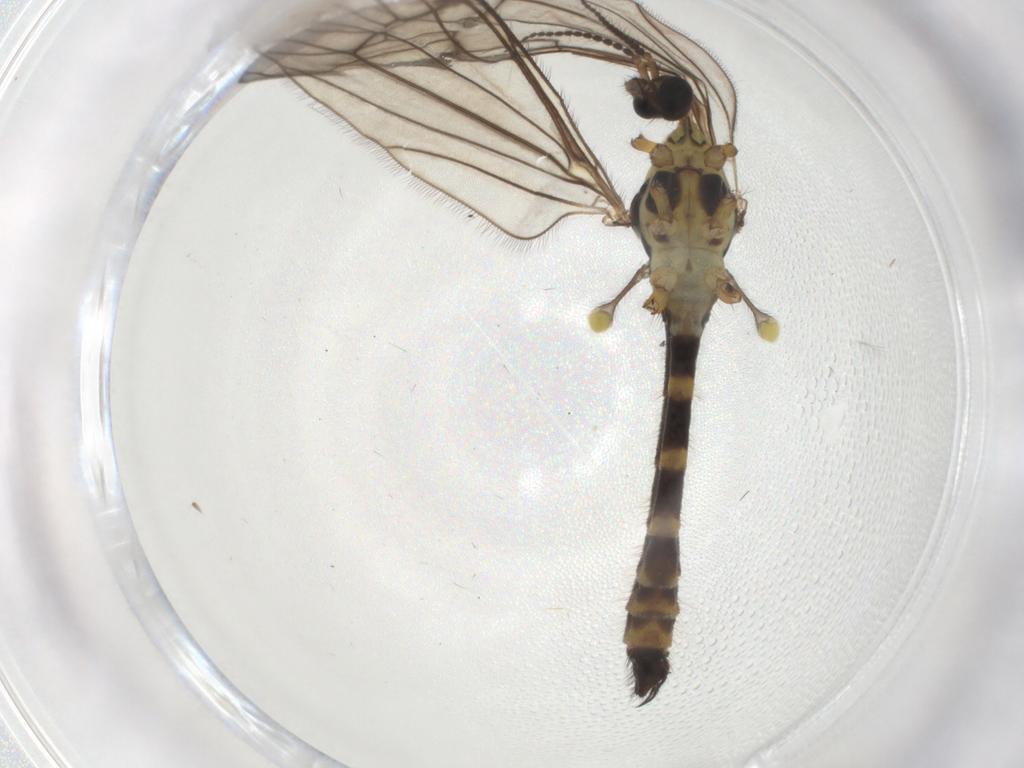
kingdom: Animalia
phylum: Arthropoda
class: Insecta
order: Diptera
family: Limoniidae
